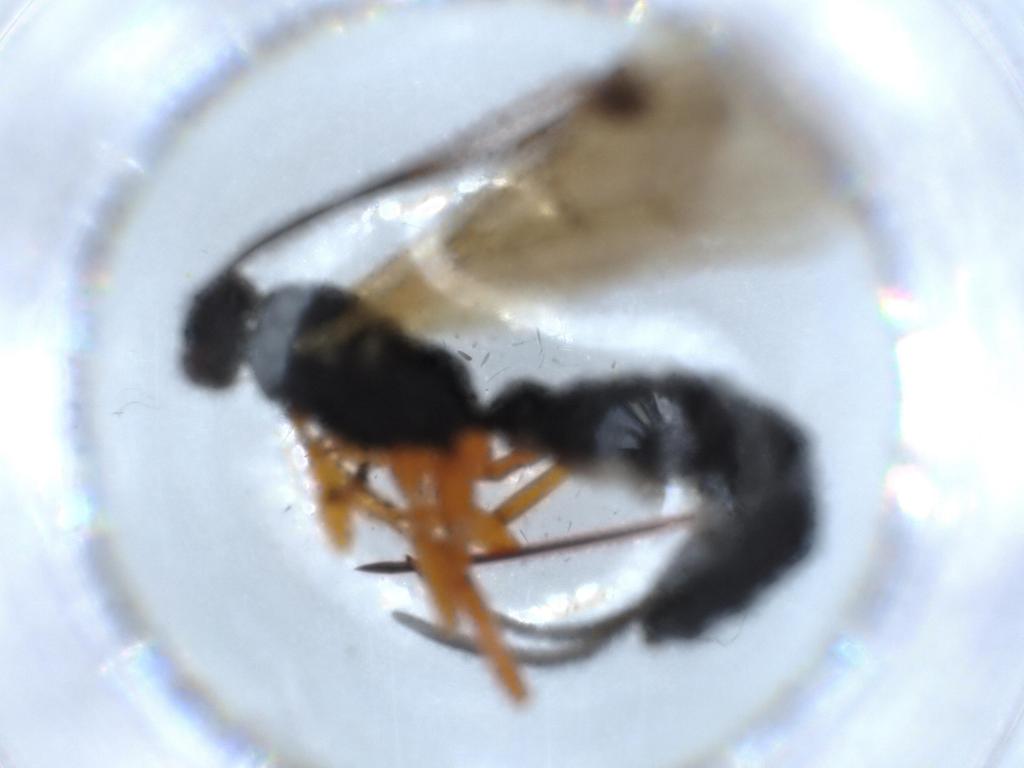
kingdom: Animalia
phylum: Arthropoda
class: Insecta
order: Hymenoptera
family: Ichneumonidae
